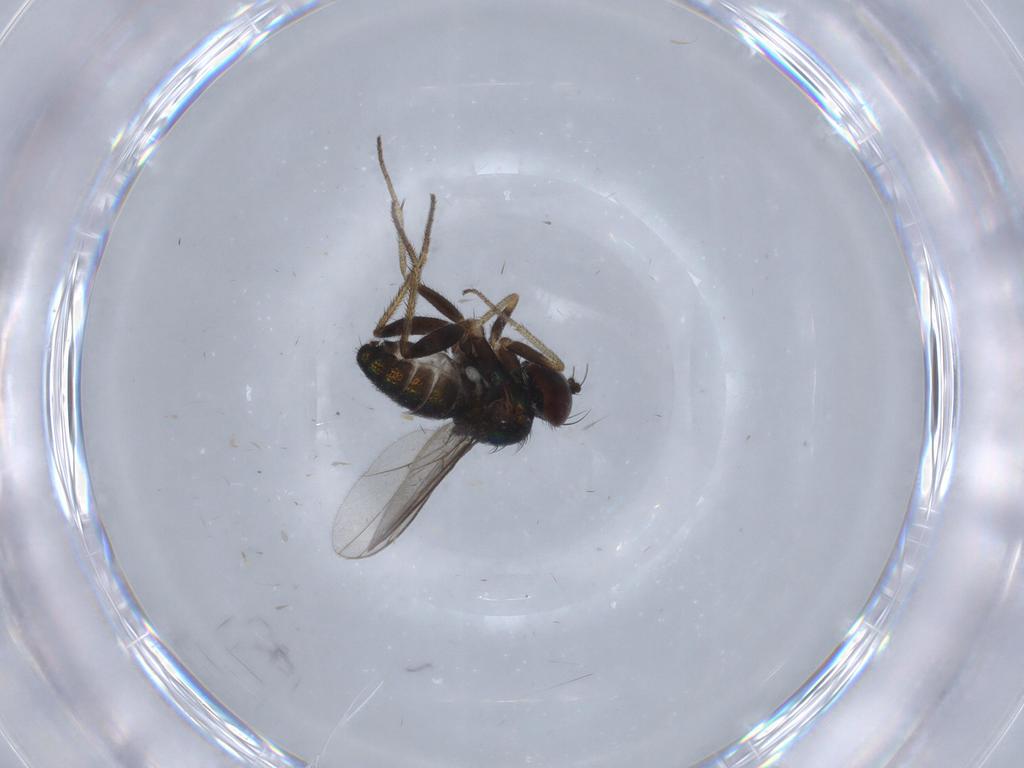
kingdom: Animalia
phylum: Arthropoda
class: Insecta
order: Diptera
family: Dolichopodidae
